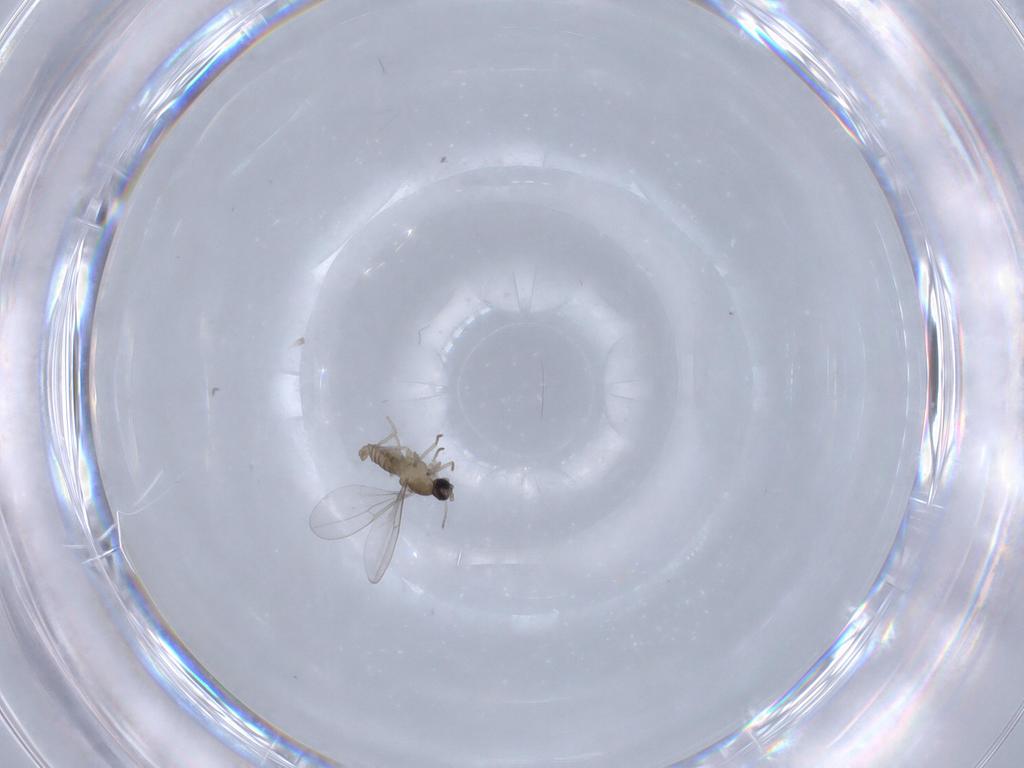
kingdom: Animalia
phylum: Arthropoda
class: Insecta
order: Diptera
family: Cecidomyiidae
